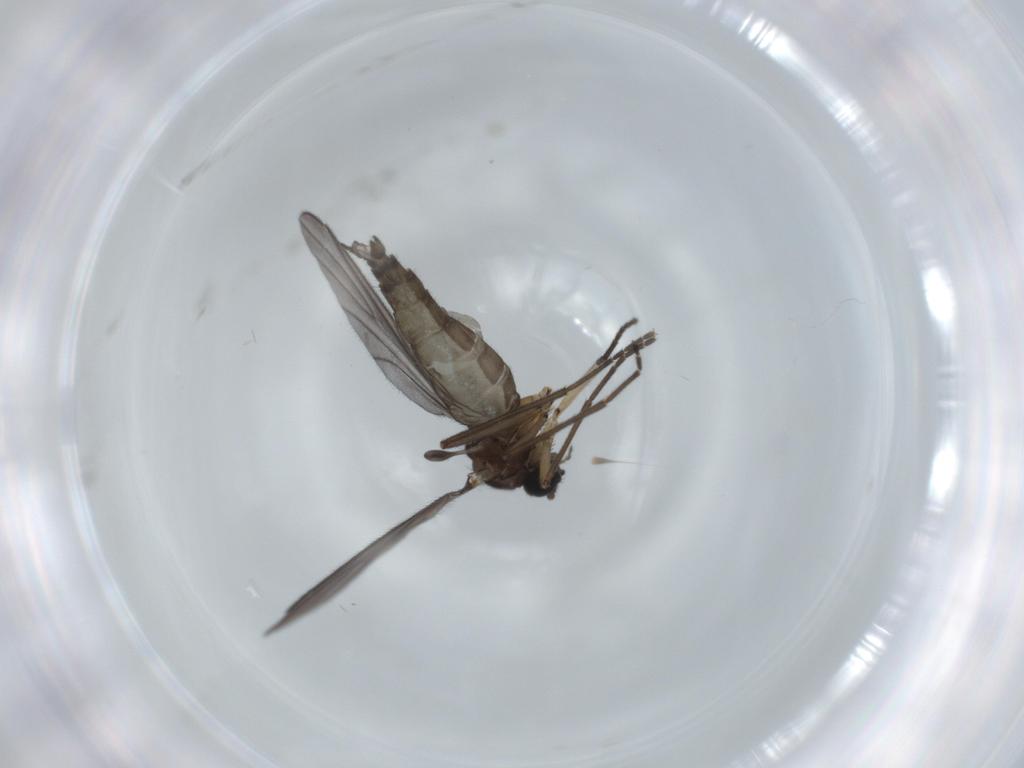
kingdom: Animalia
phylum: Arthropoda
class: Insecta
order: Diptera
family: Sciaridae
